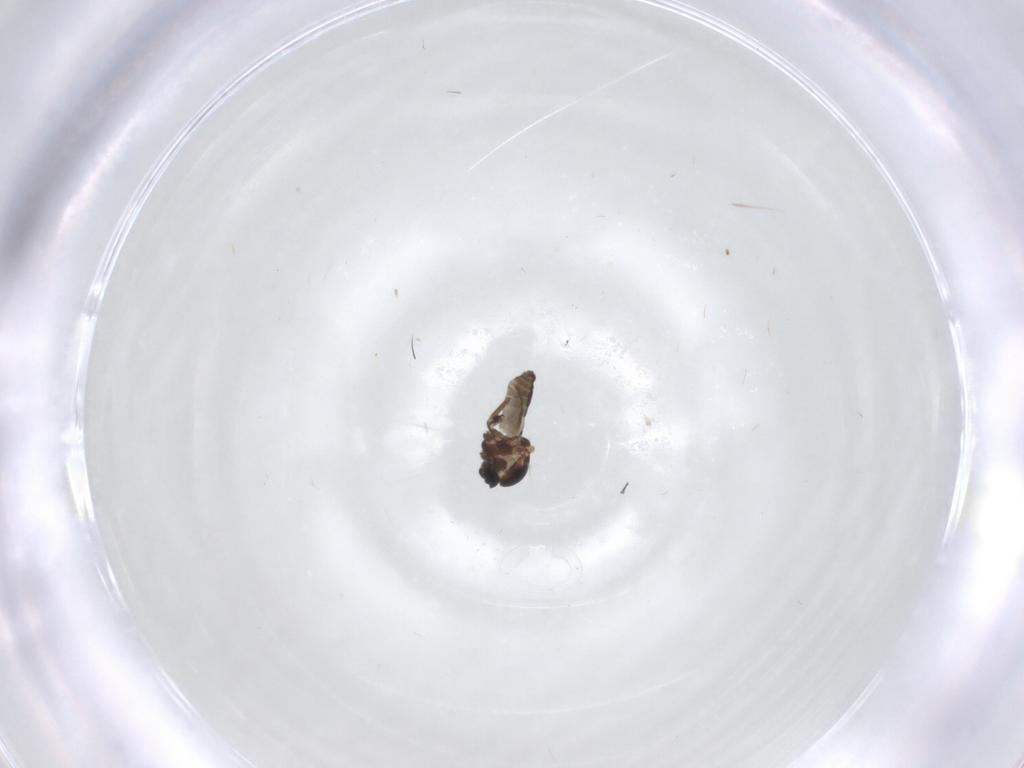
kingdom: Animalia
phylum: Arthropoda
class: Insecta
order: Diptera
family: Ceratopogonidae
